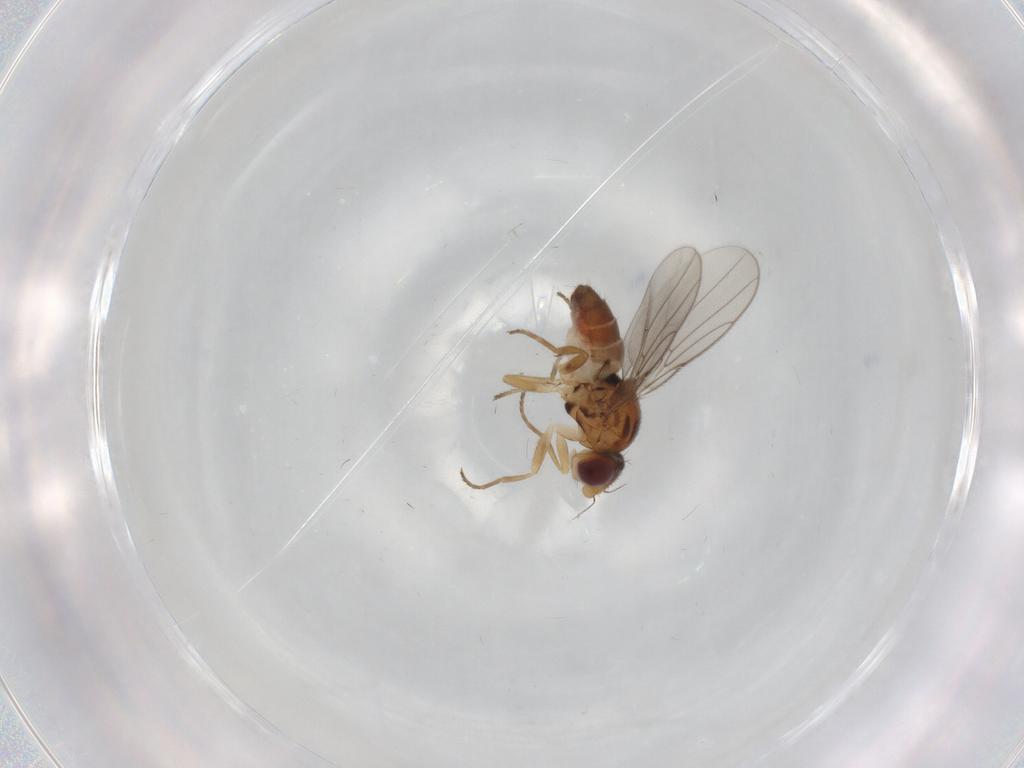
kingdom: Animalia
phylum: Arthropoda
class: Insecta
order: Diptera
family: Chloropidae
